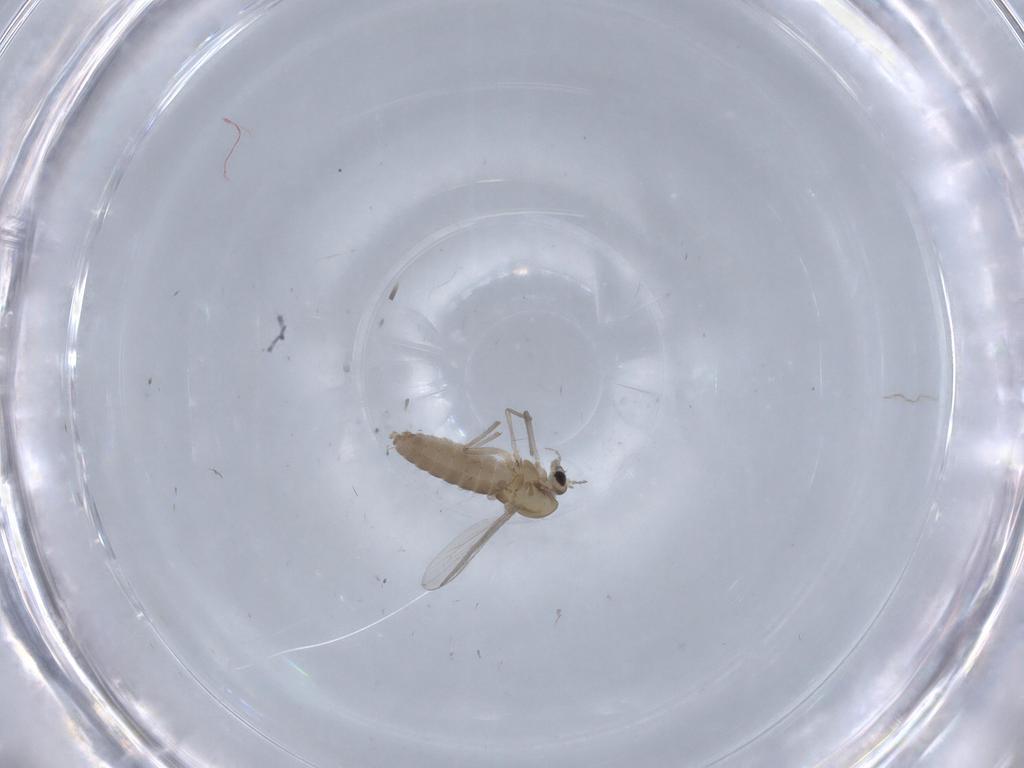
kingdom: Animalia
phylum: Arthropoda
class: Insecta
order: Diptera
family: Chironomidae
